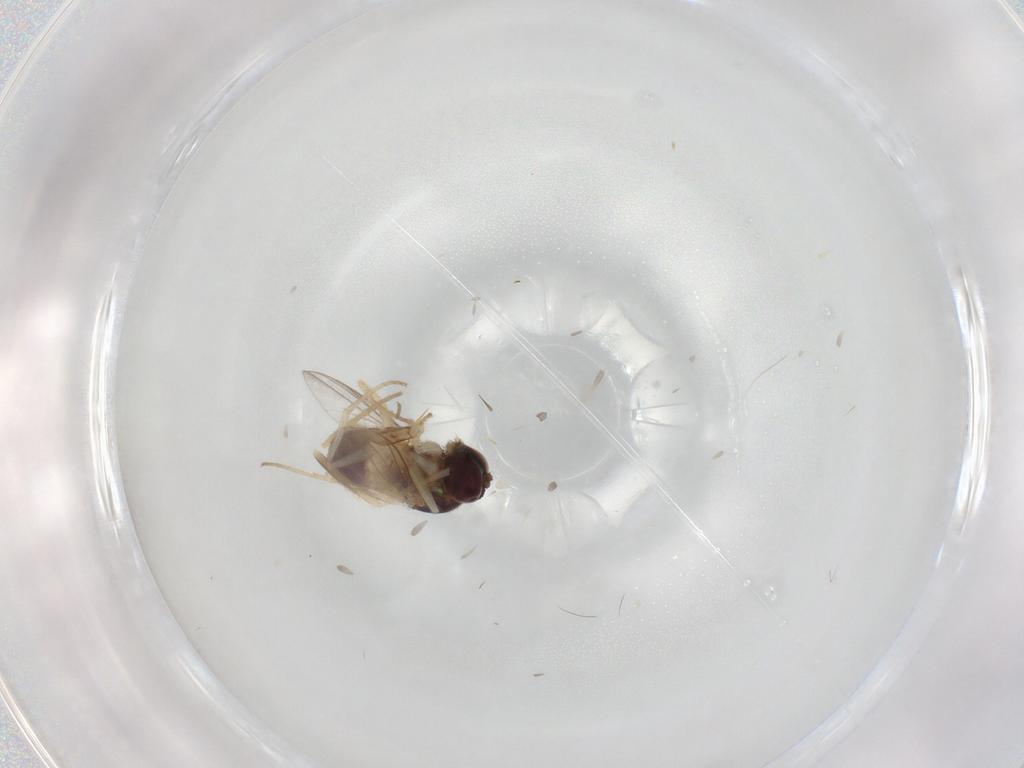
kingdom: Animalia
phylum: Arthropoda
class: Insecta
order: Diptera
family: Dolichopodidae
